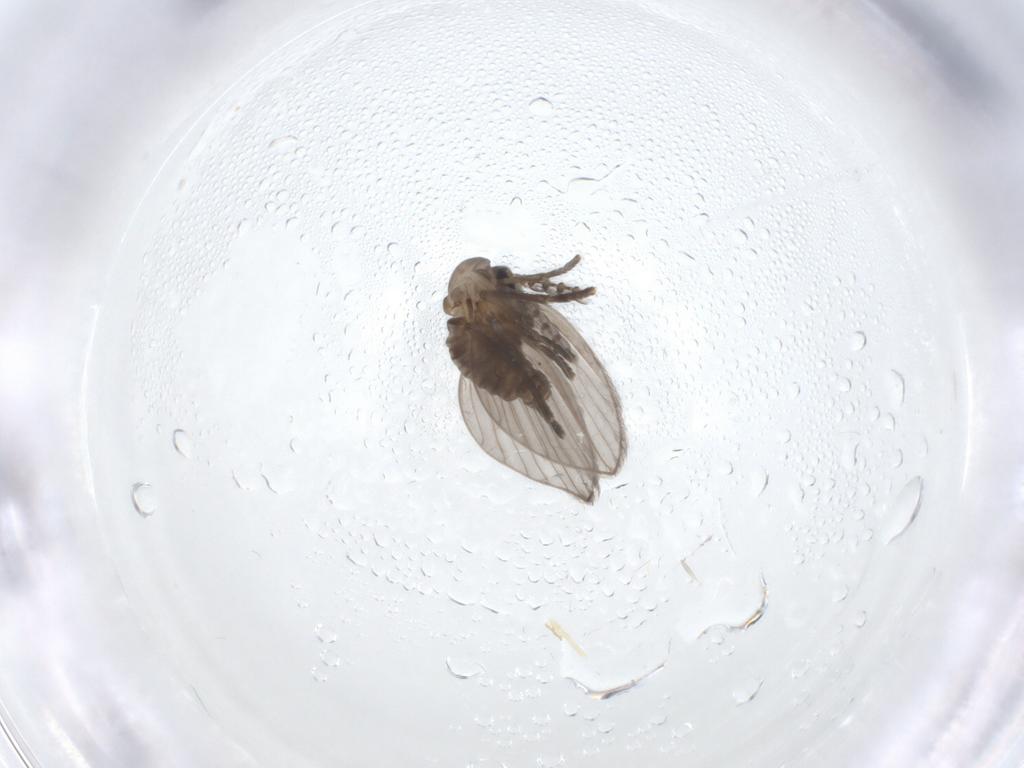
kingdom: Animalia
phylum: Arthropoda
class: Insecta
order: Diptera
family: Psychodidae
